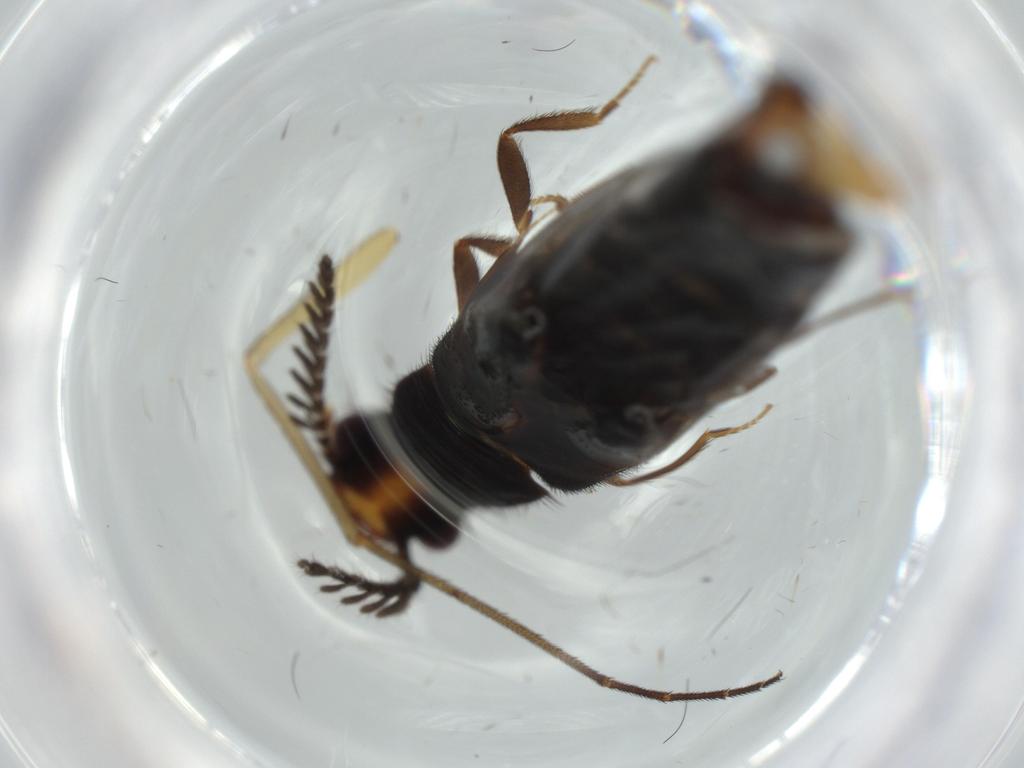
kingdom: Animalia
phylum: Arthropoda
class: Insecta
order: Coleoptera
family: Phengodidae
